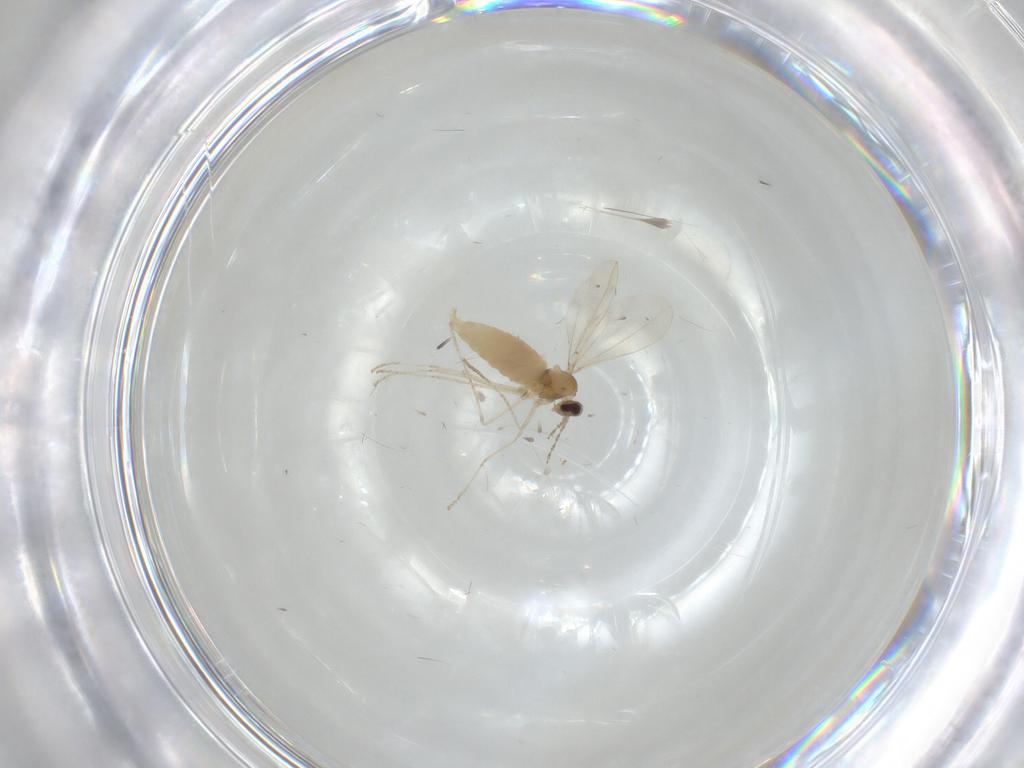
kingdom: Animalia
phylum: Arthropoda
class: Insecta
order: Diptera
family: Cecidomyiidae
